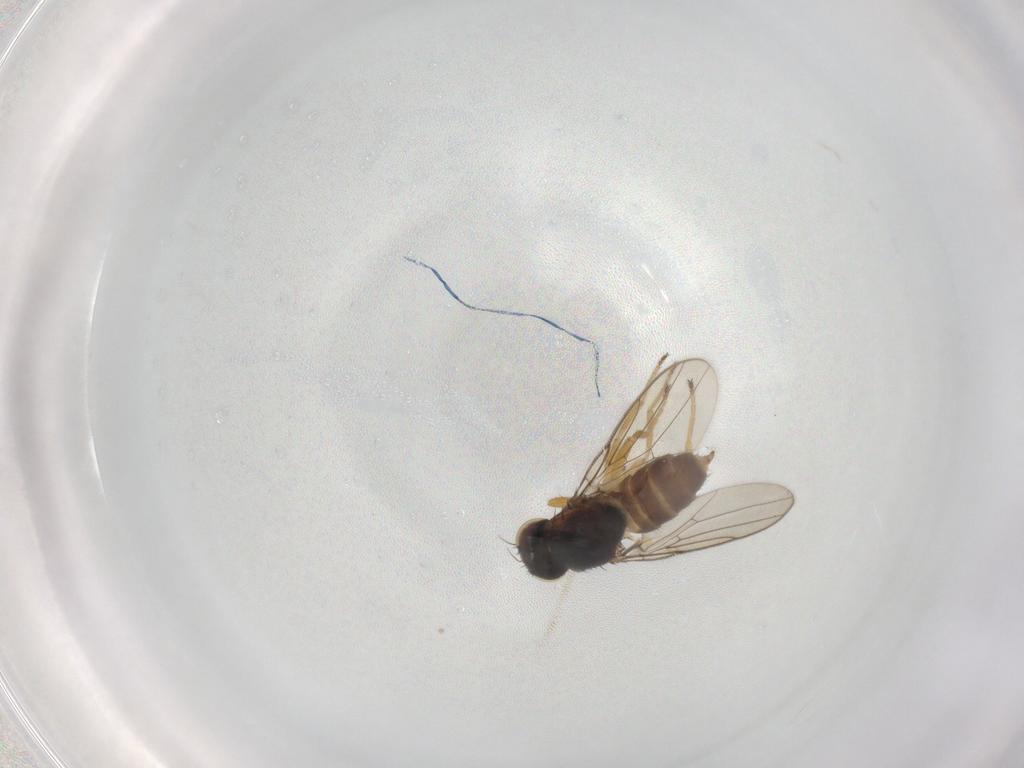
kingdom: Animalia
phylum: Arthropoda
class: Insecta
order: Diptera
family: Chloropidae
